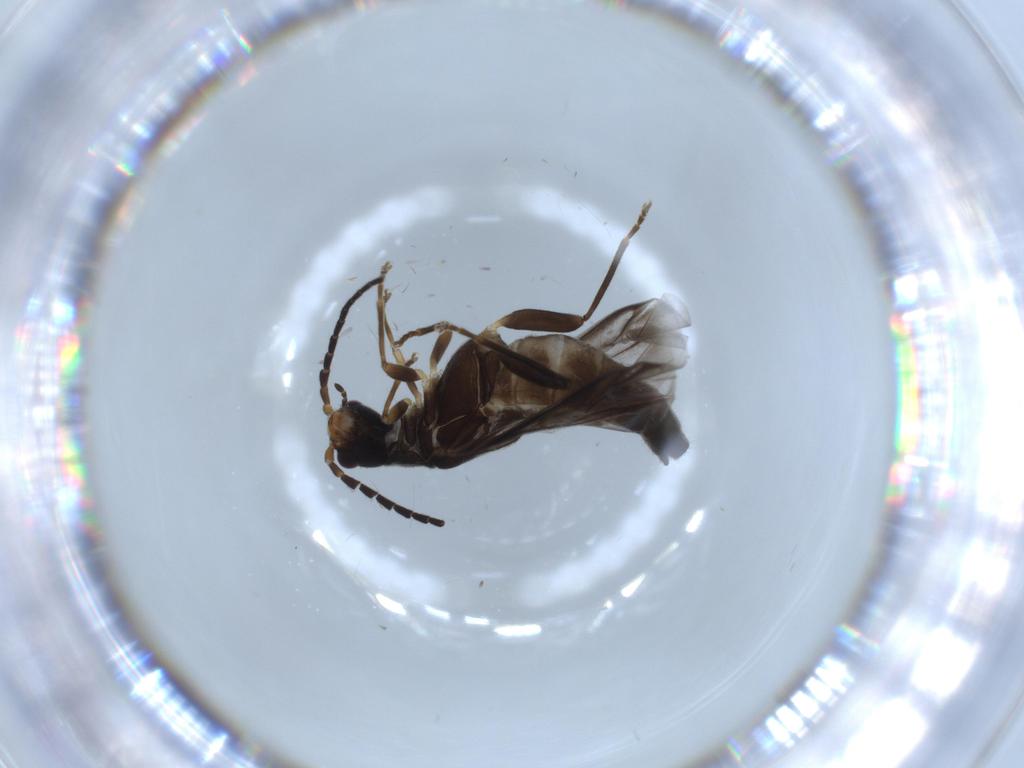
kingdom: Animalia
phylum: Arthropoda
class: Insecta
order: Coleoptera
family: Cantharidae
